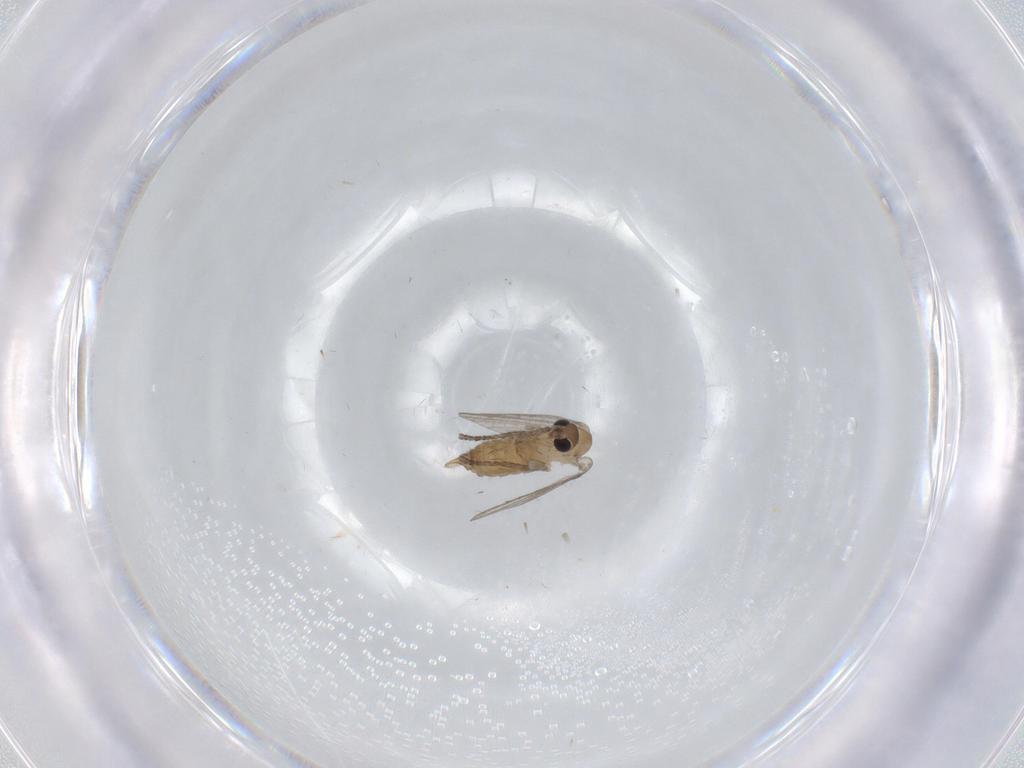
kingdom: Animalia
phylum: Arthropoda
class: Insecta
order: Diptera
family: Psychodidae
